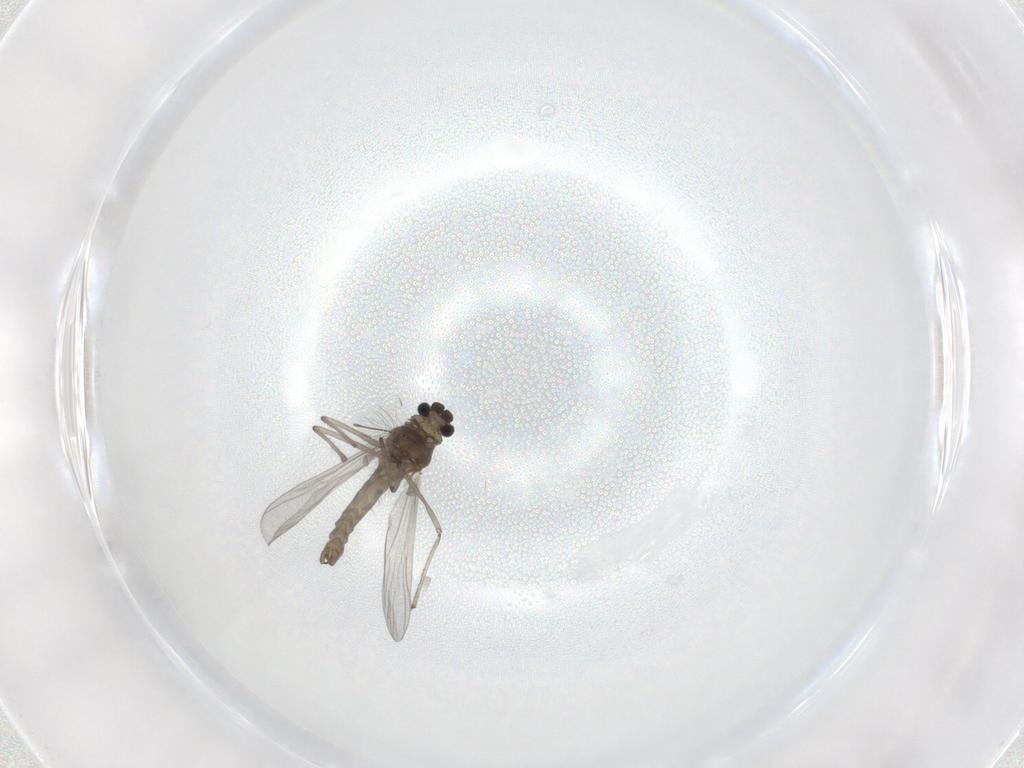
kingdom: Animalia
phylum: Arthropoda
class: Insecta
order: Diptera
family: Chironomidae
